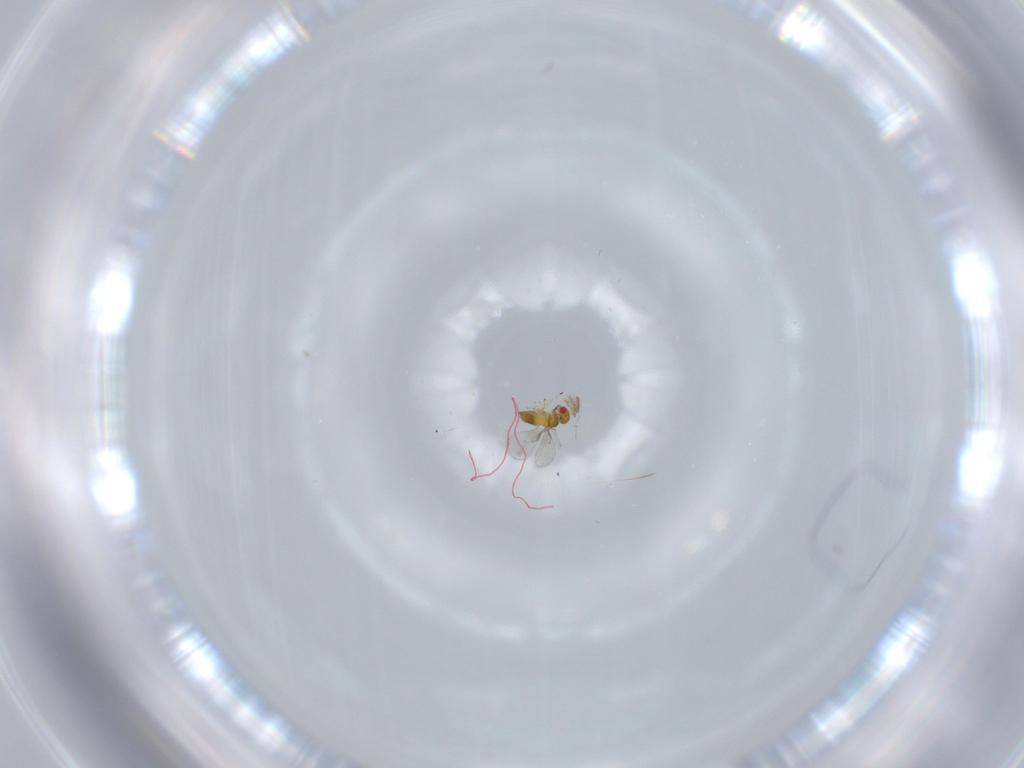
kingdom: Animalia
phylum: Arthropoda
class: Insecta
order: Hymenoptera
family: Trichogrammatidae
